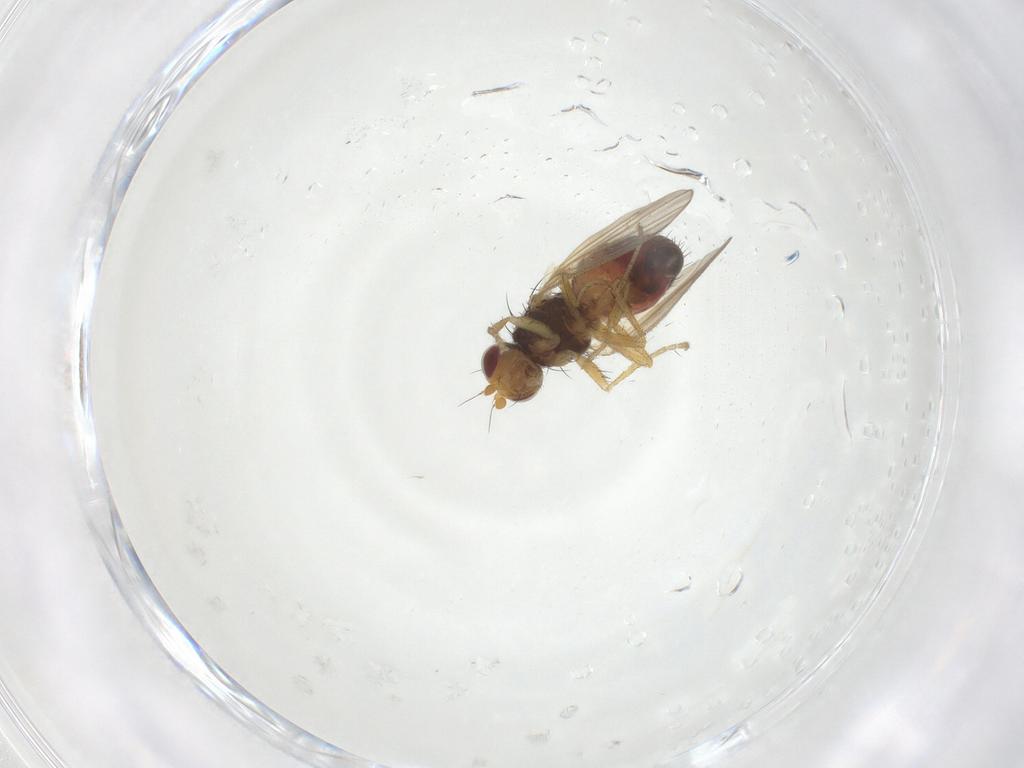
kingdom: Animalia
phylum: Arthropoda
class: Insecta
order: Diptera
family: Heleomyzidae
